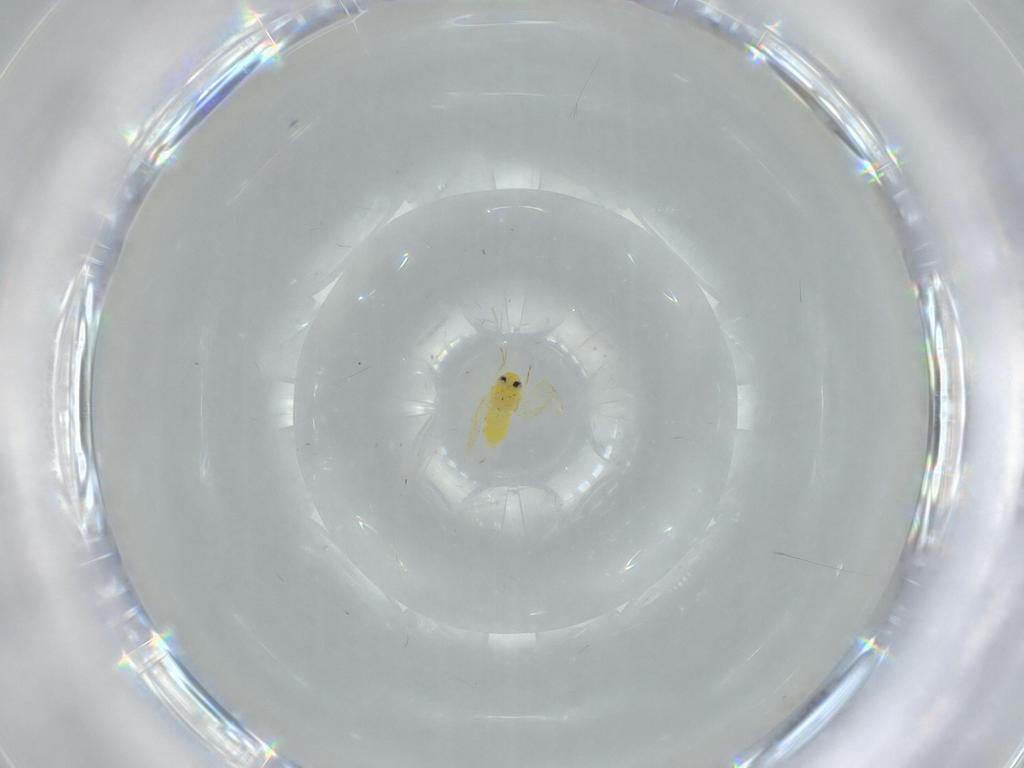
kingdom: Animalia
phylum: Arthropoda
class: Insecta
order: Hemiptera
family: Aleyrodidae
